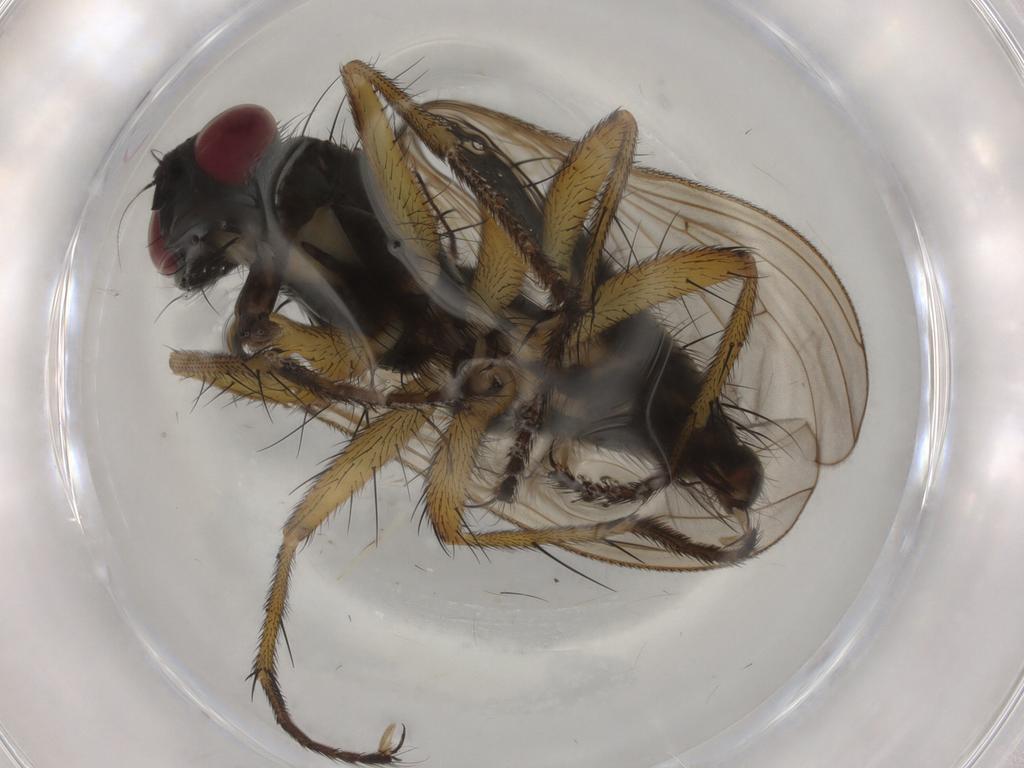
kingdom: Animalia
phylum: Arthropoda
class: Insecta
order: Diptera
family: Muscidae
